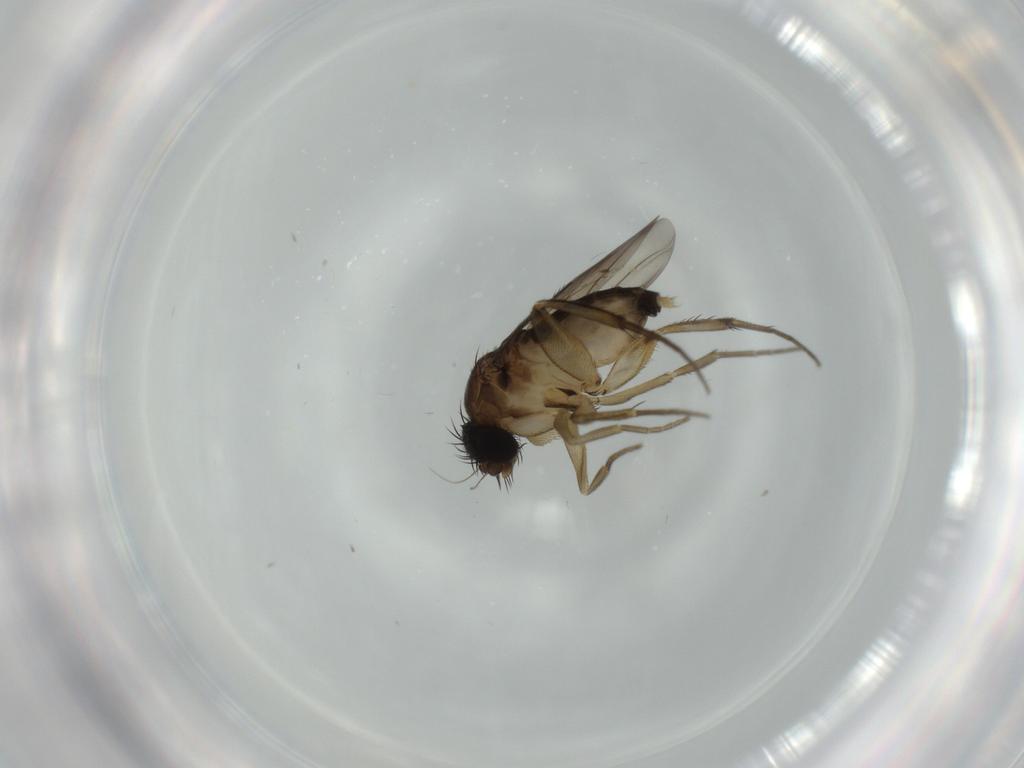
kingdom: Animalia
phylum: Arthropoda
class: Insecta
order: Diptera
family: Phoridae
